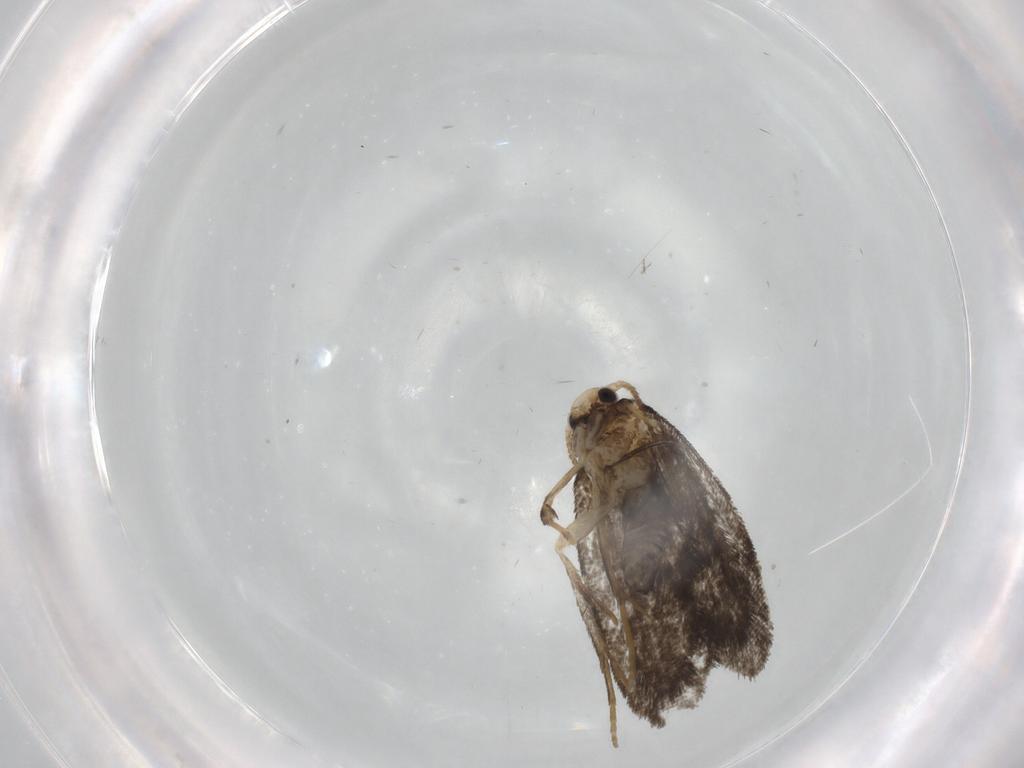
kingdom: Animalia
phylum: Arthropoda
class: Insecta
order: Lepidoptera
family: Psychidae
